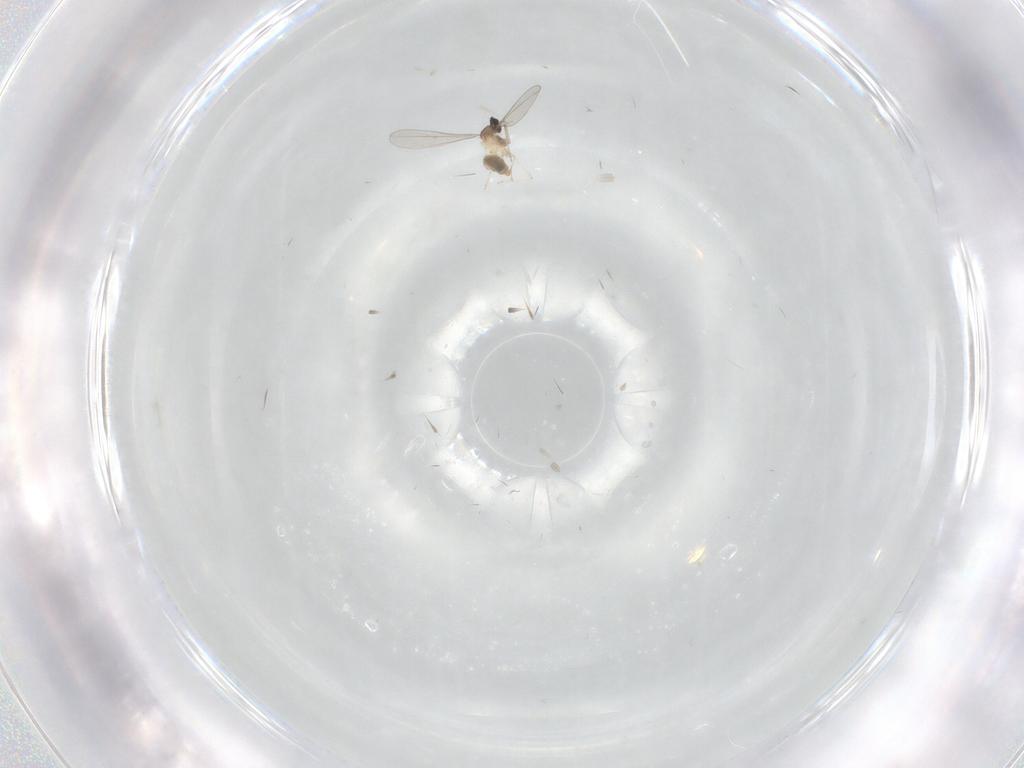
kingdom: Animalia
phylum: Arthropoda
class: Insecta
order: Diptera
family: Cecidomyiidae
